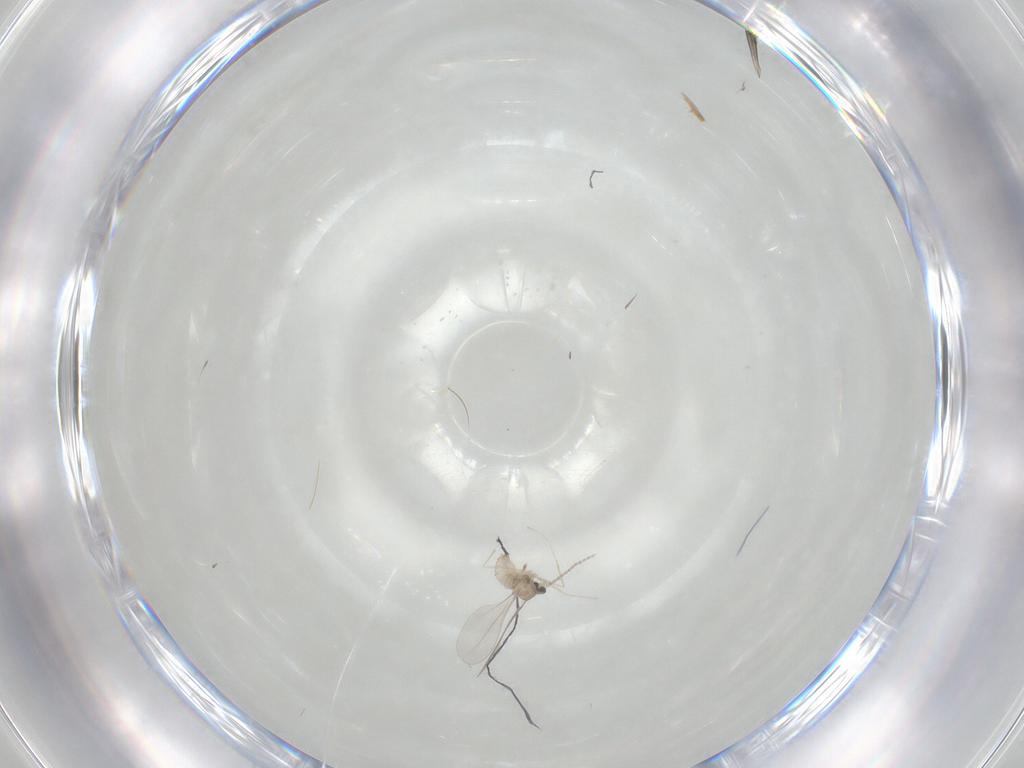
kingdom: Animalia
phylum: Arthropoda
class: Insecta
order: Diptera
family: Cecidomyiidae
